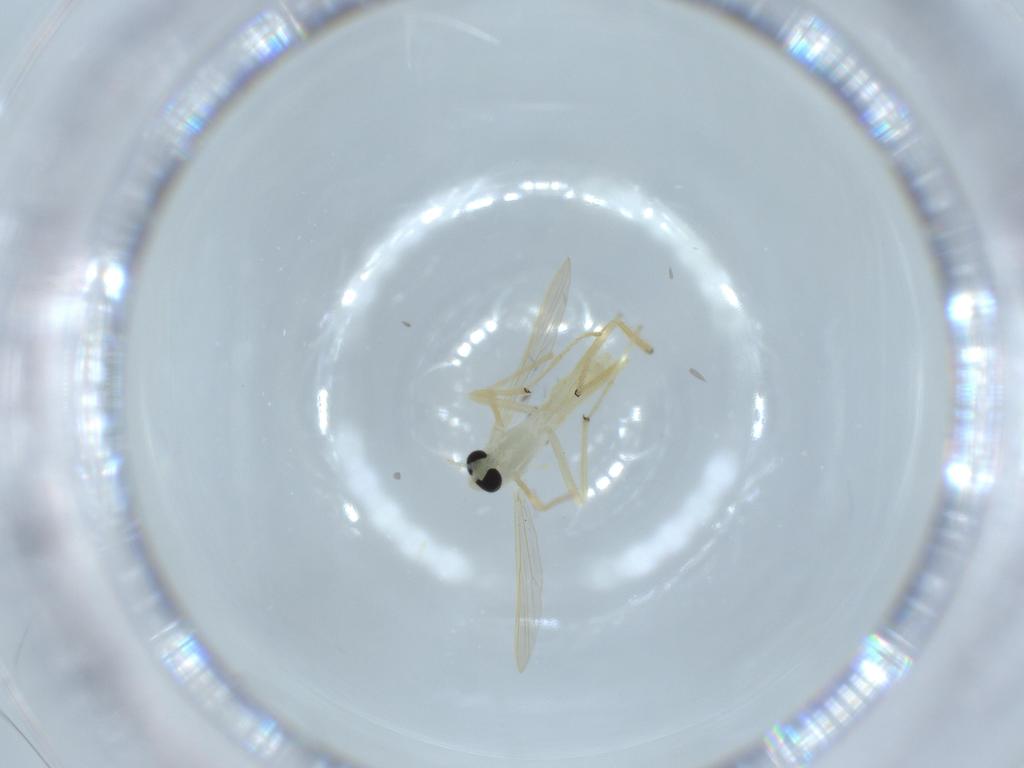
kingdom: Animalia
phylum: Arthropoda
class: Insecta
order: Diptera
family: Chironomidae
